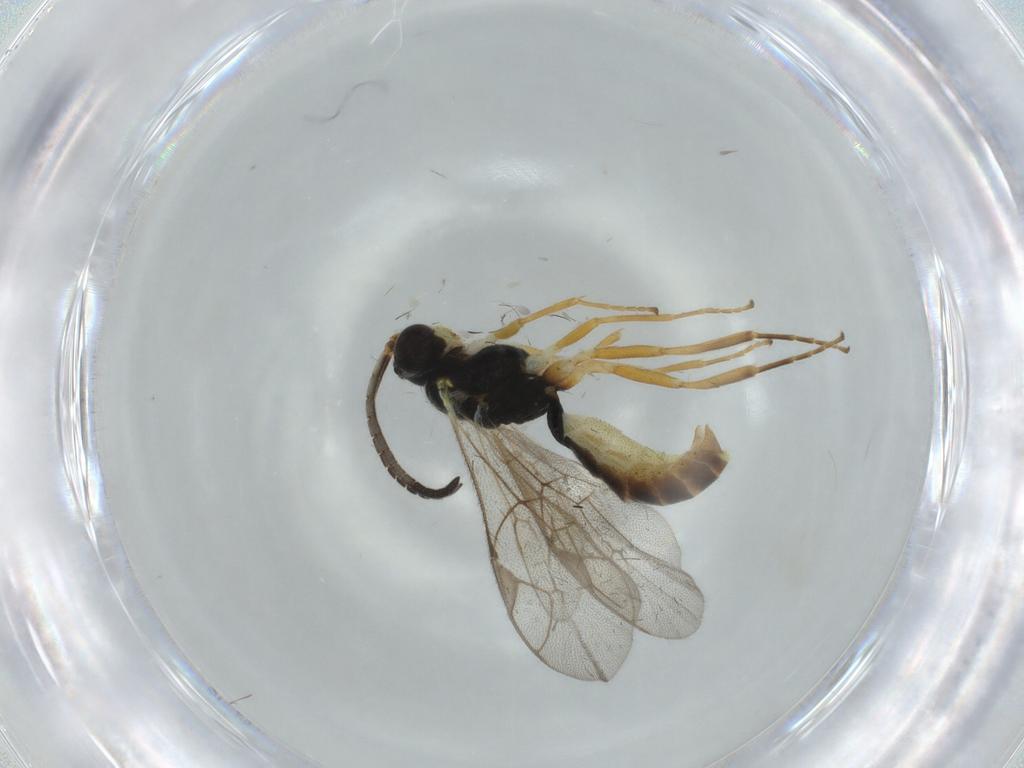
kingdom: Animalia
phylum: Arthropoda
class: Insecta
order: Hymenoptera
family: Ichneumonidae
